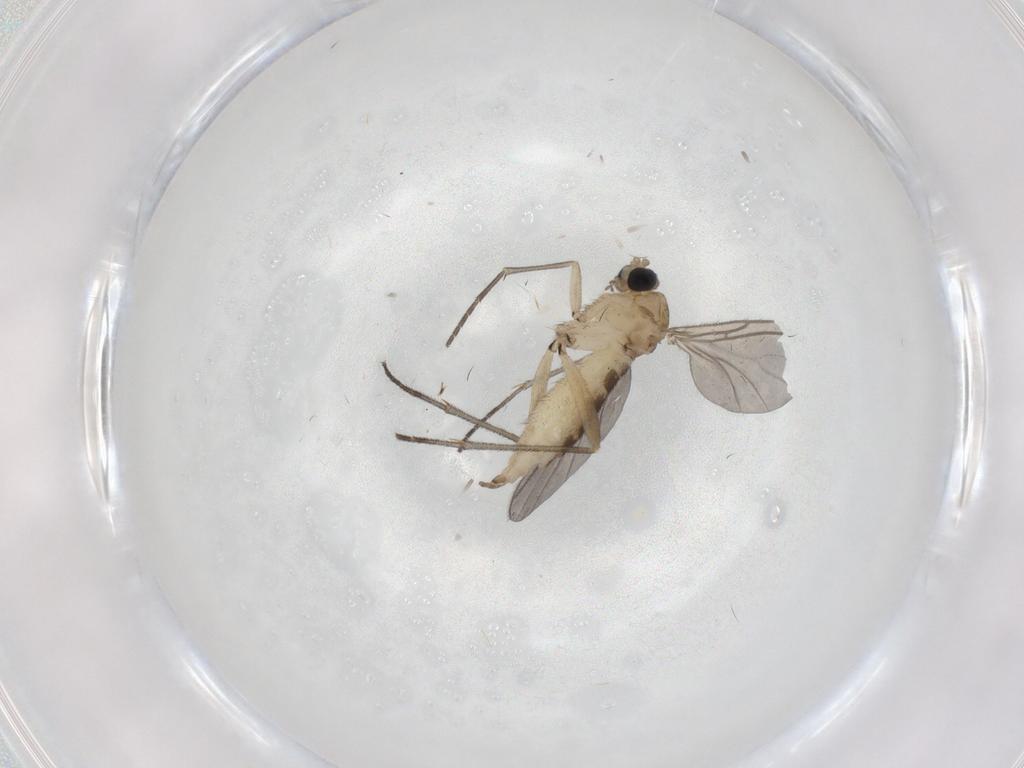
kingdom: Animalia
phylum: Arthropoda
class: Insecta
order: Diptera
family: Sciaridae
